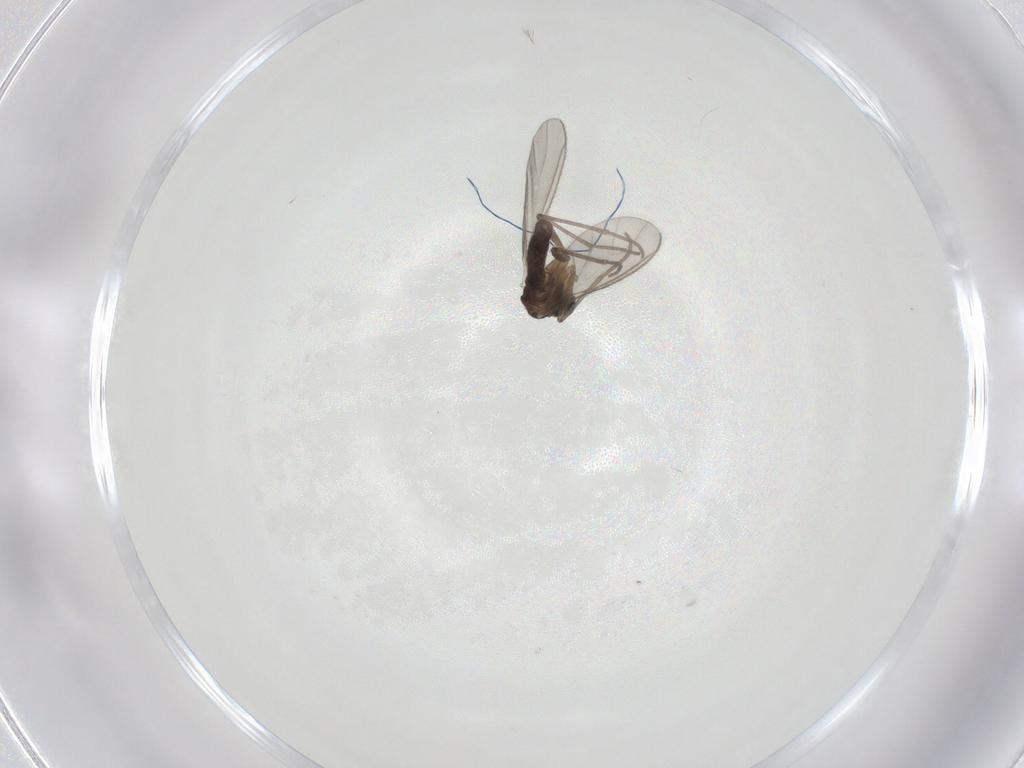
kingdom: Animalia
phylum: Arthropoda
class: Insecta
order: Diptera
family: Sciaridae
